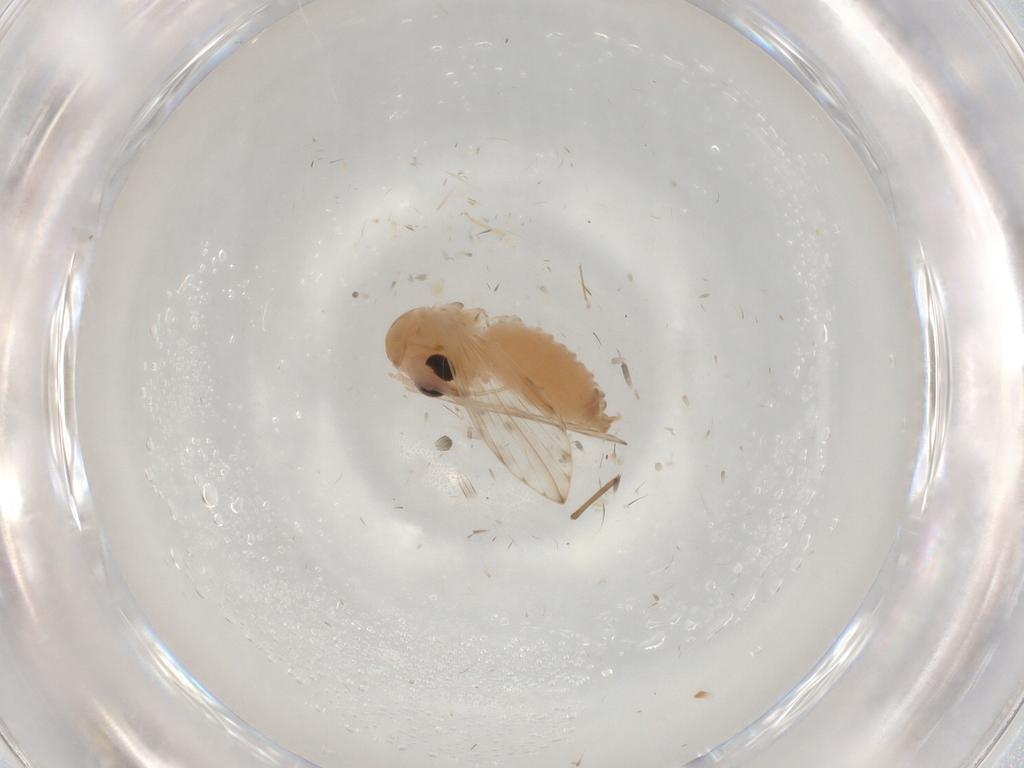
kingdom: Animalia
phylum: Arthropoda
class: Insecta
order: Diptera
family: Psychodidae
